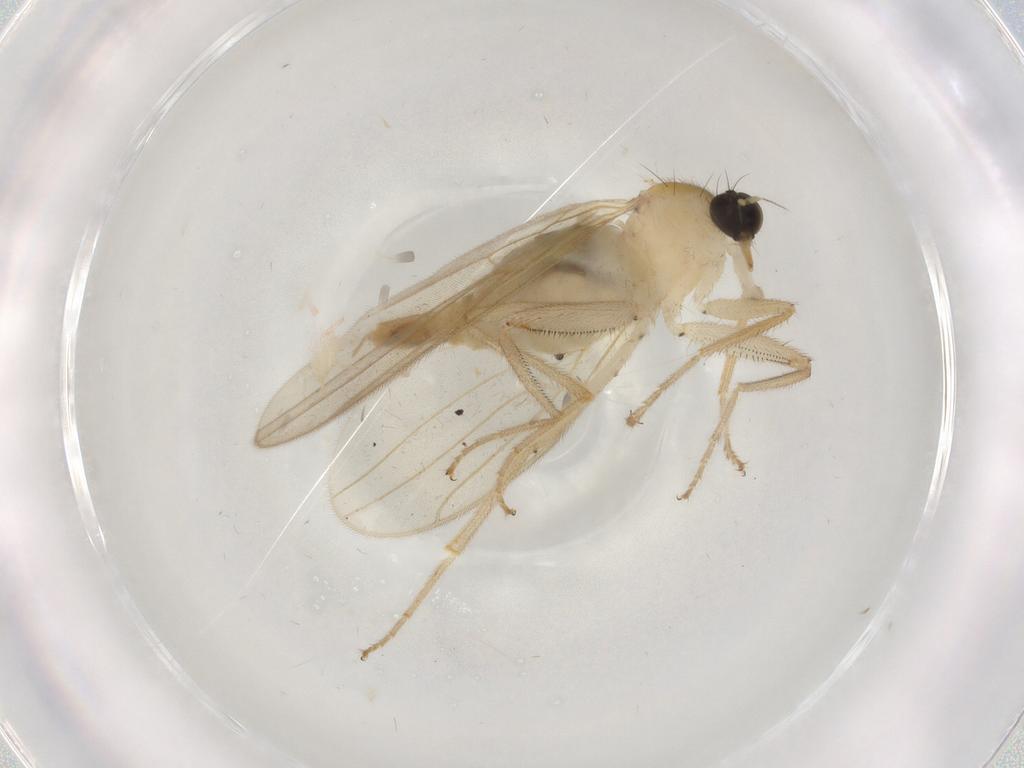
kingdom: Animalia
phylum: Arthropoda
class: Insecta
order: Diptera
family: Hybotidae
